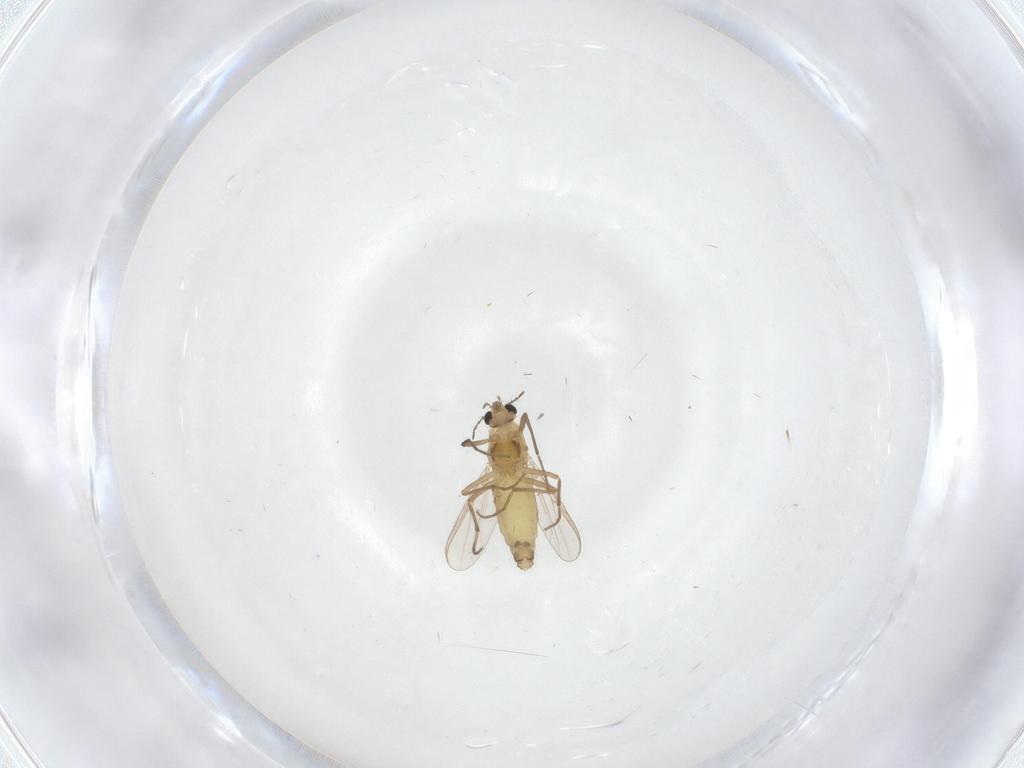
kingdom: Animalia
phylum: Arthropoda
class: Insecta
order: Diptera
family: Chironomidae
